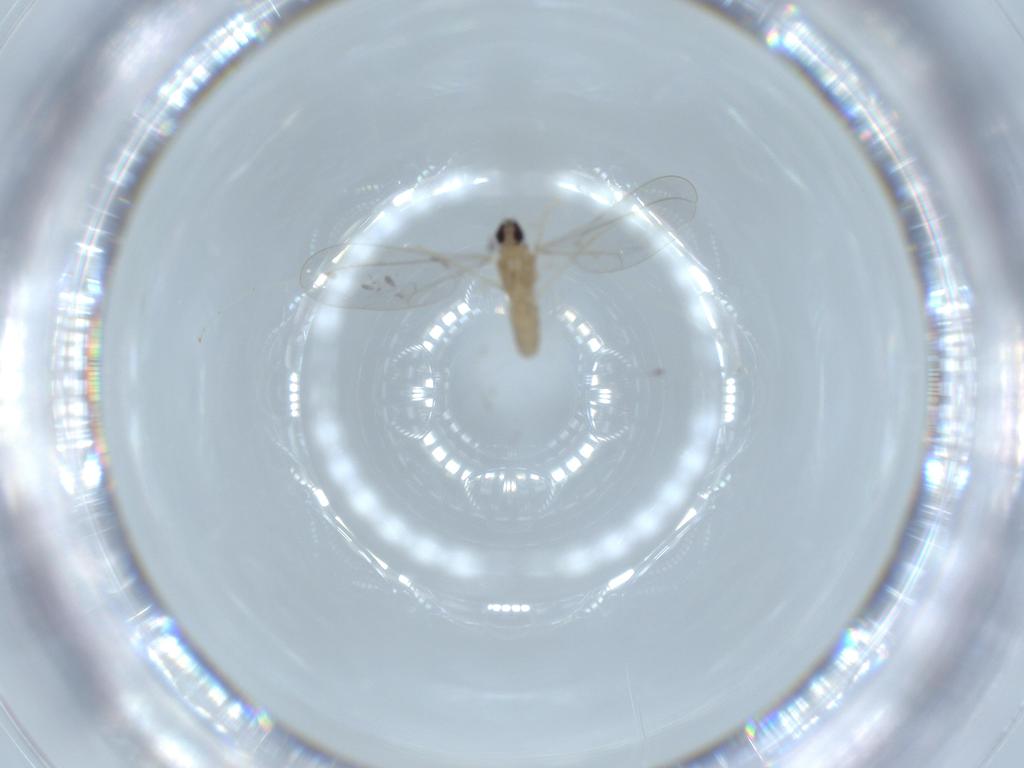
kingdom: Animalia
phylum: Arthropoda
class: Insecta
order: Diptera
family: Cecidomyiidae
